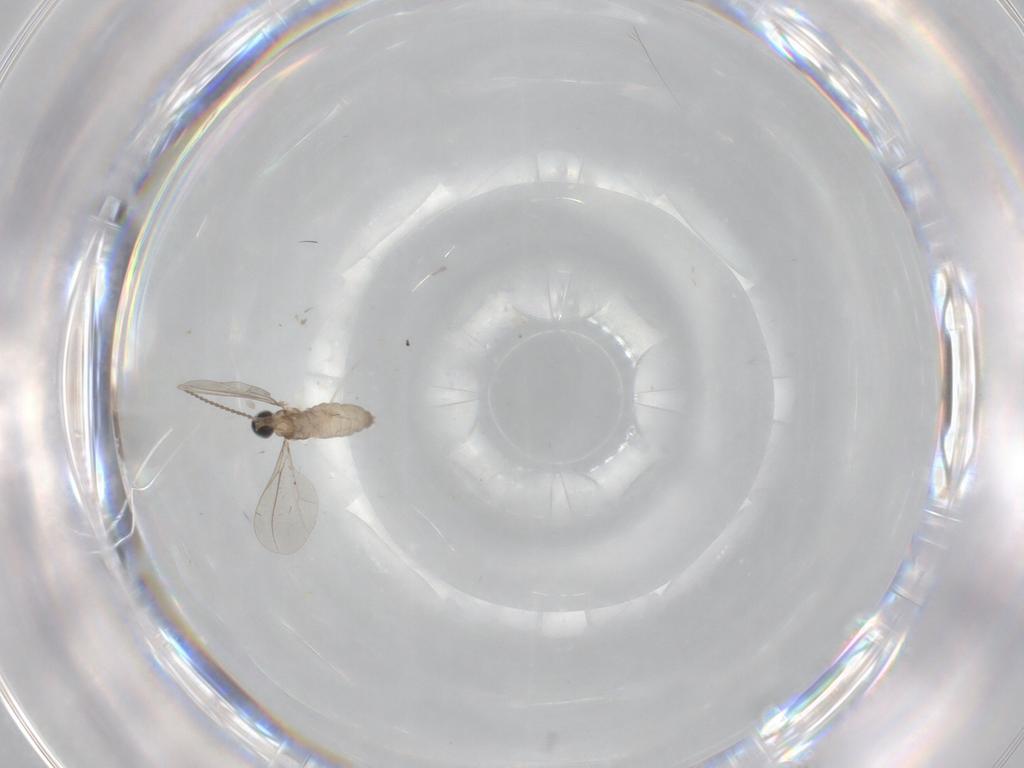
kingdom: Animalia
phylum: Arthropoda
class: Insecta
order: Diptera
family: Cecidomyiidae
